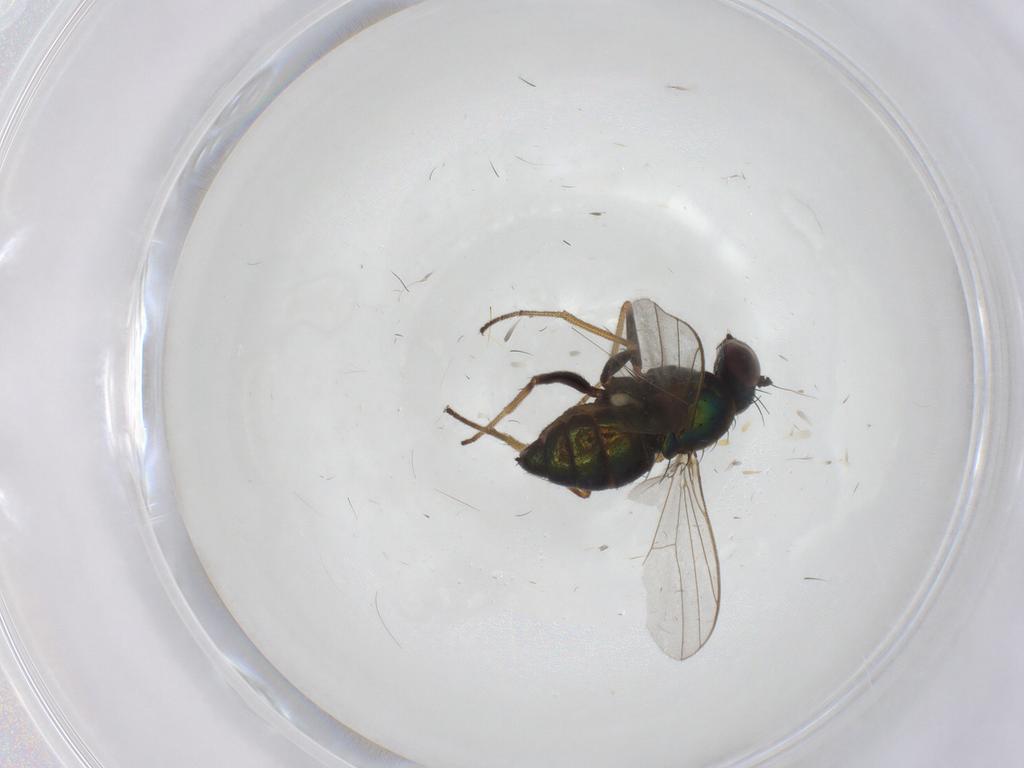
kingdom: Animalia
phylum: Arthropoda
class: Insecta
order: Diptera
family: Dolichopodidae
